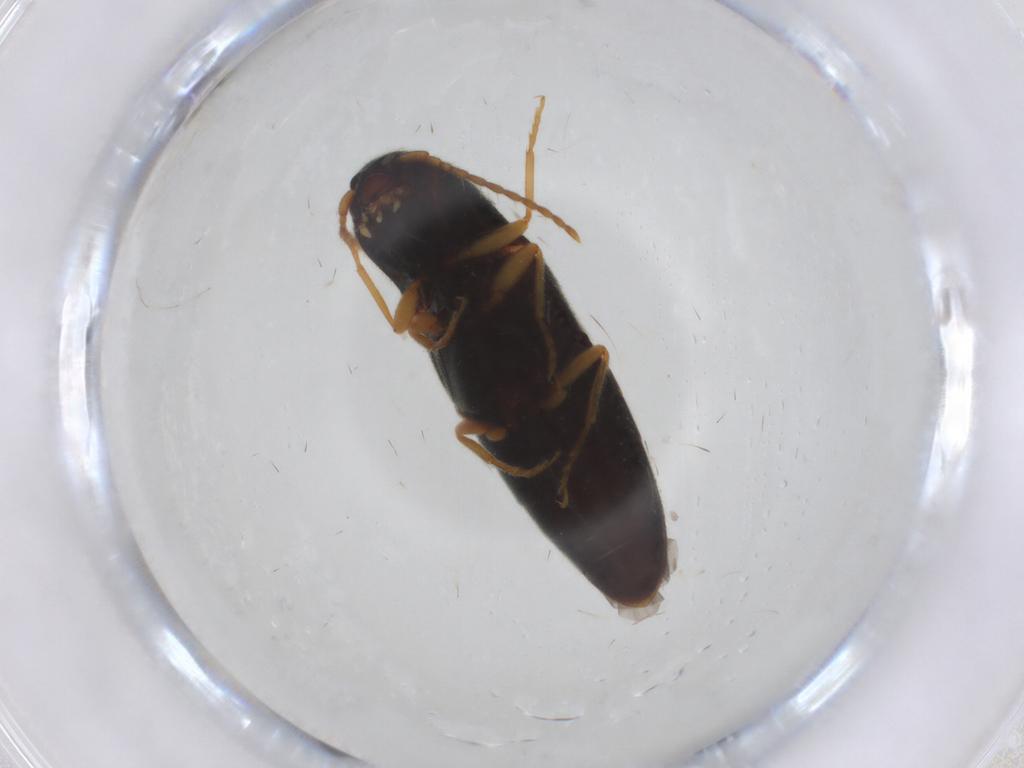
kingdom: Animalia
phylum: Arthropoda
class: Insecta
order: Coleoptera
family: Elateridae
